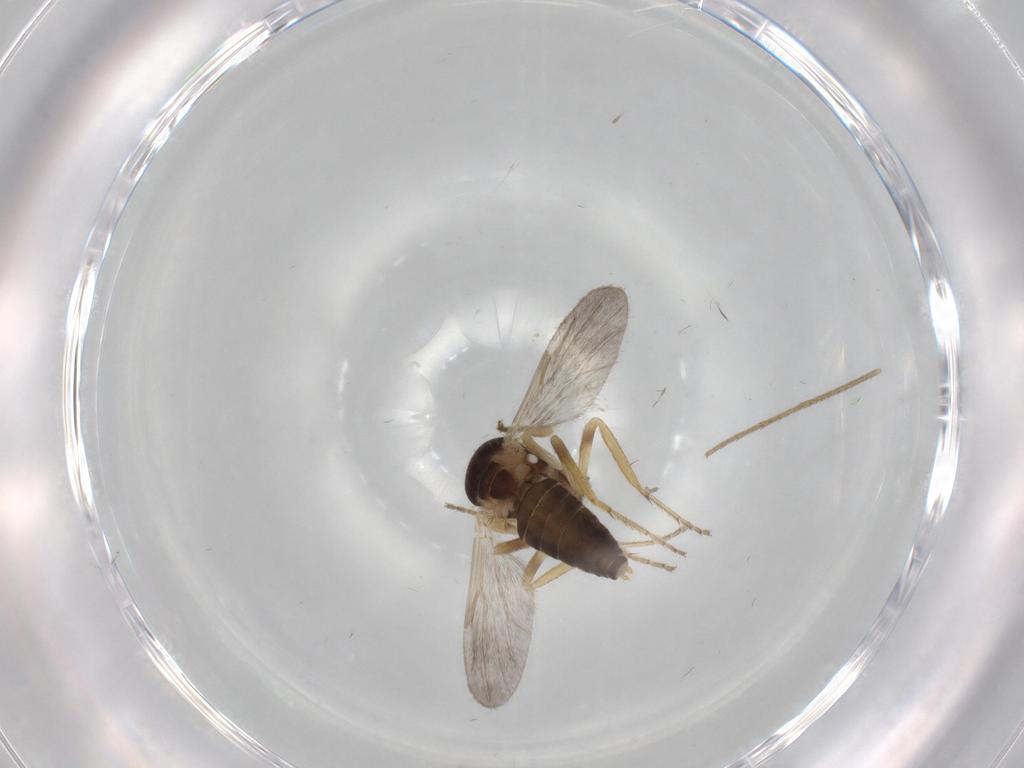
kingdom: Animalia
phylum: Arthropoda
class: Insecta
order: Diptera
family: Ceratopogonidae
